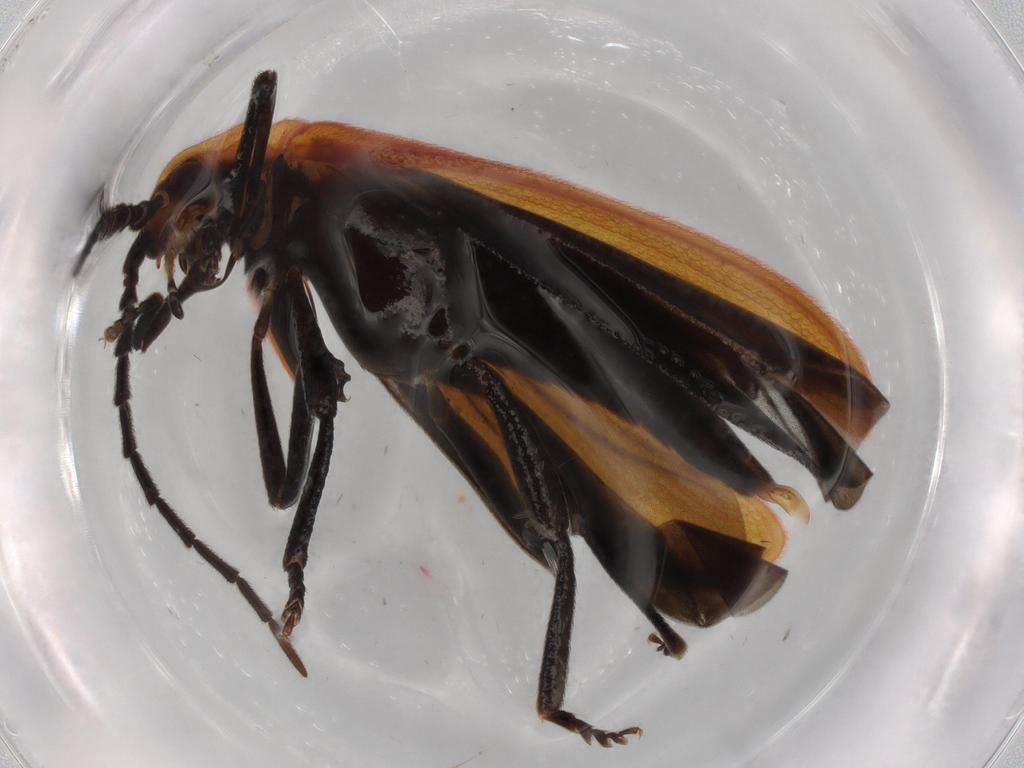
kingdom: Animalia
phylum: Arthropoda
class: Insecta
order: Coleoptera
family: Lycidae
